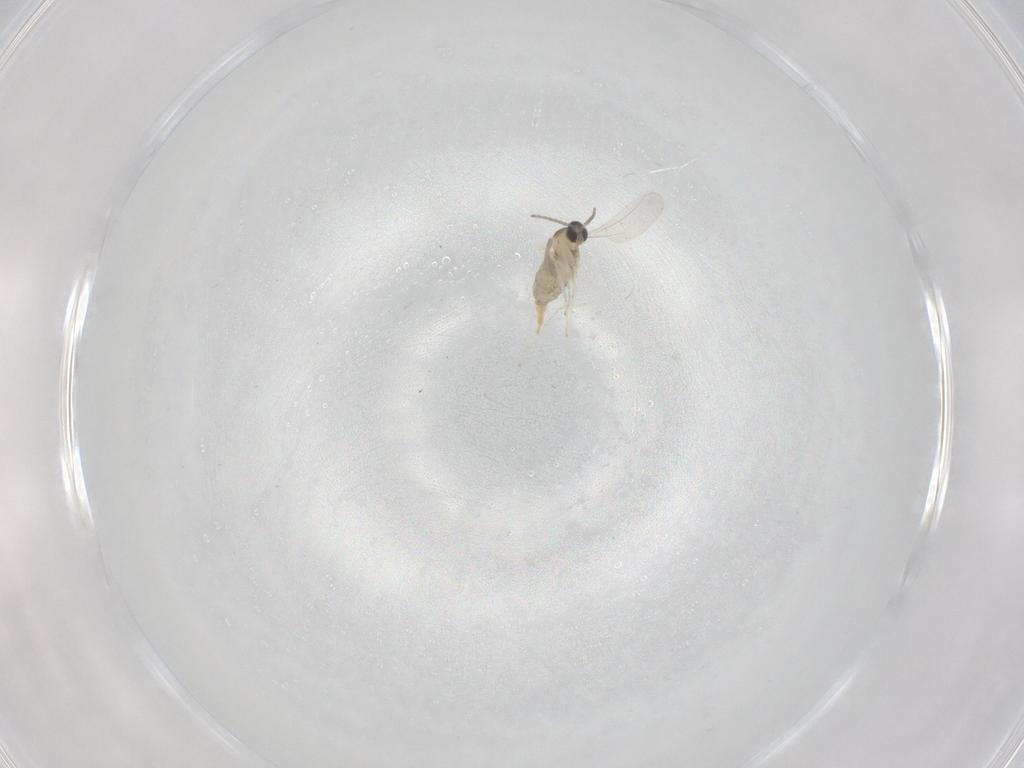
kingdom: Animalia
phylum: Arthropoda
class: Insecta
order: Diptera
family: Cecidomyiidae
